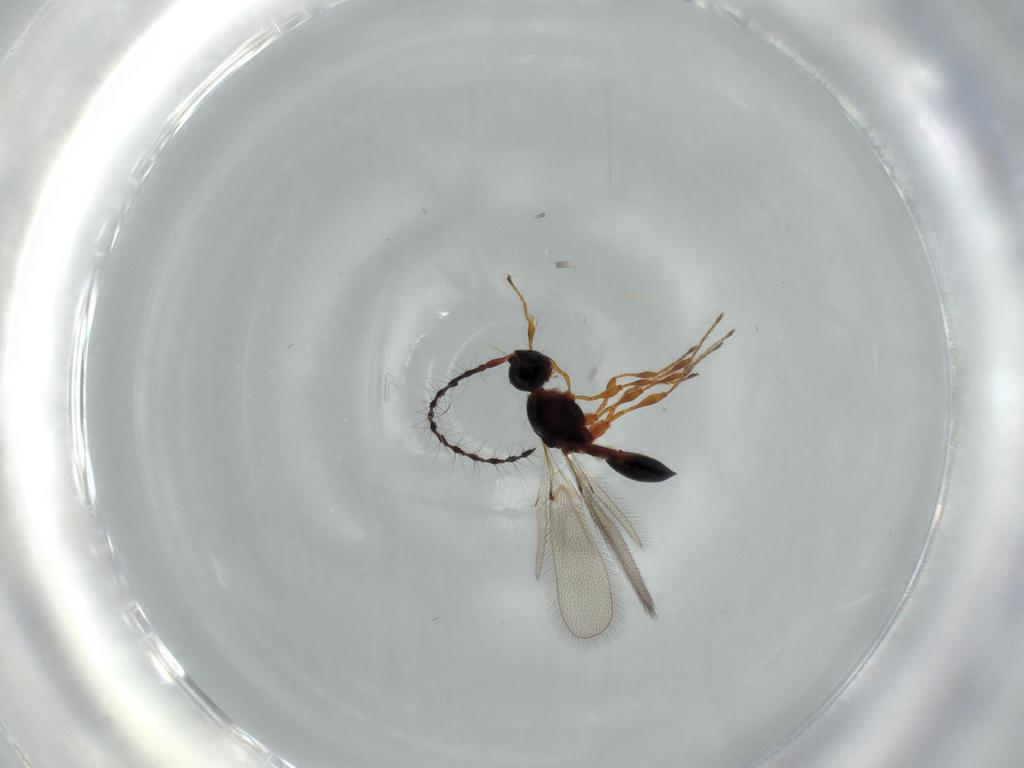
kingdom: Animalia
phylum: Arthropoda
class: Insecta
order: Hymenoptera
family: Diapriidae
